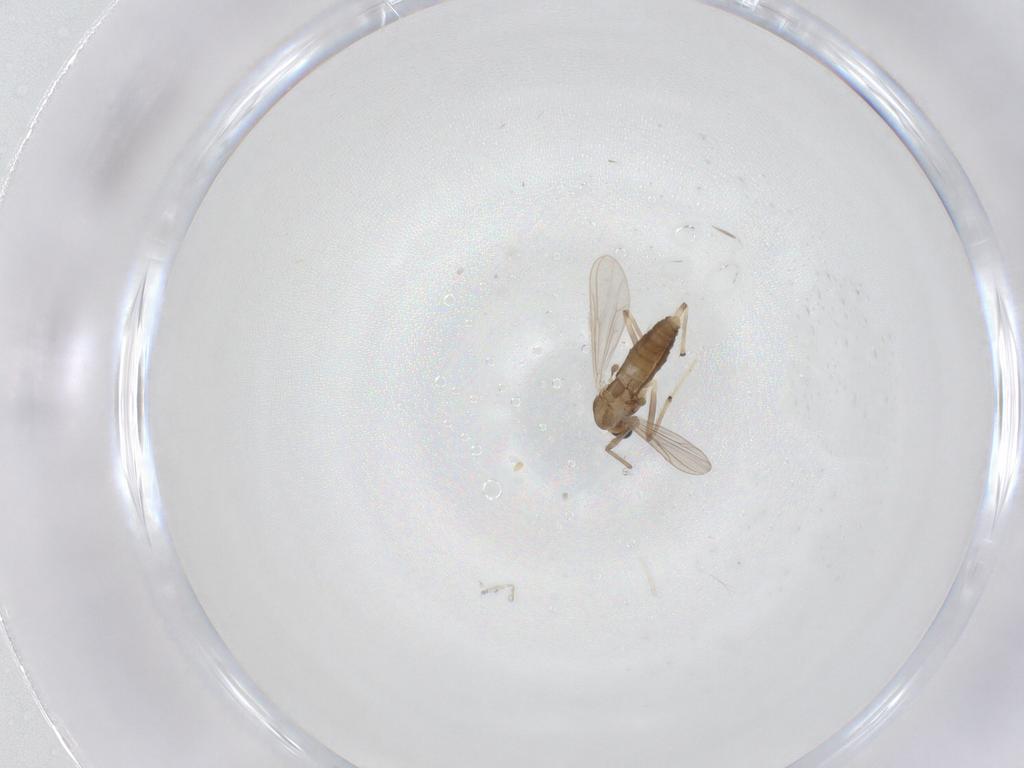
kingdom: Animalia
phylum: Arthropoda
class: Insecta
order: Diptera
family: Chironomidae
